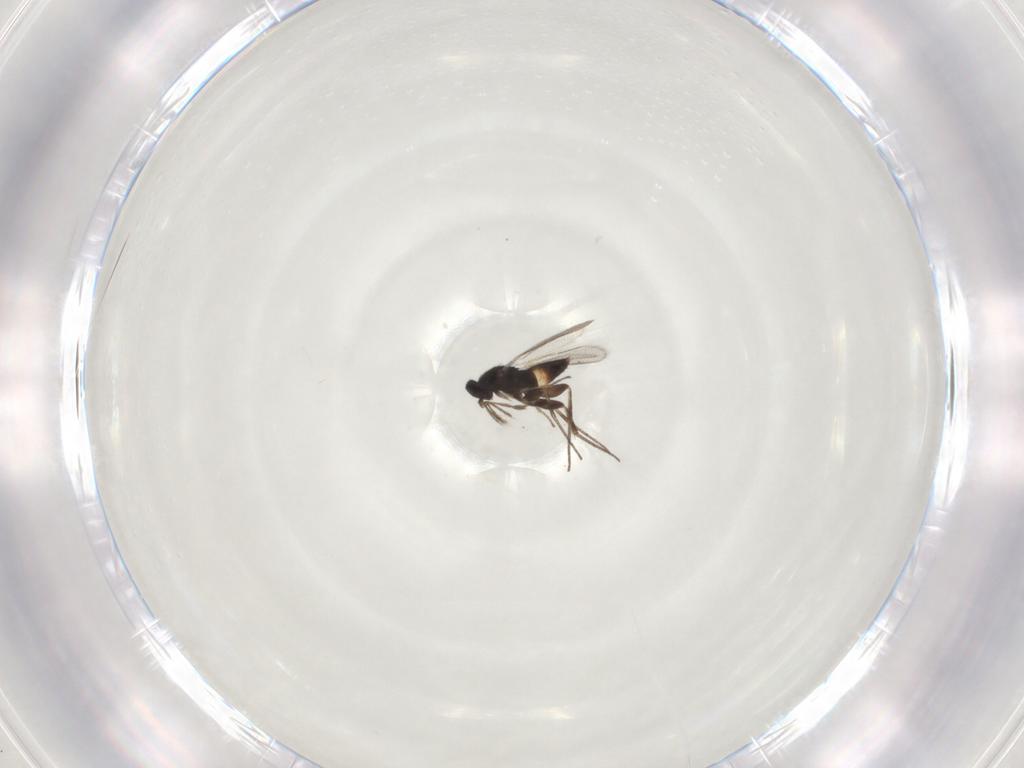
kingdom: Animalia
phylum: Arthropoda
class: Insecta
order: Hymenoptera
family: Eulophidae
